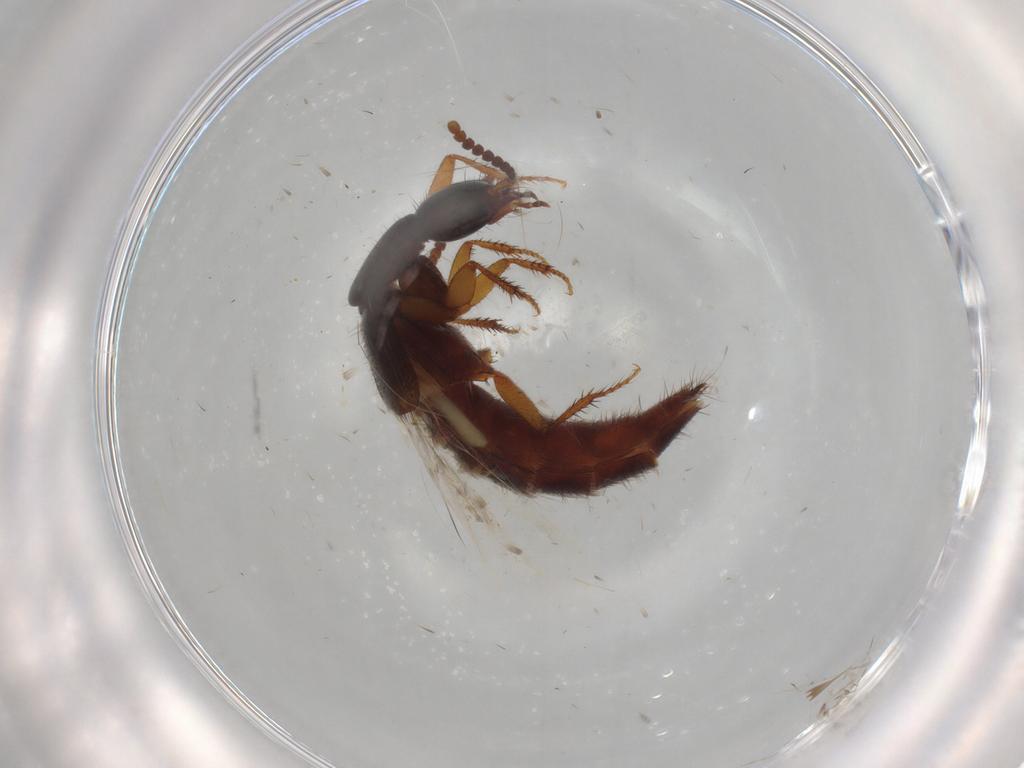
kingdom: Animalia
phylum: Arthropoda
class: Insecta
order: Coleoptera
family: Staphylinidae
